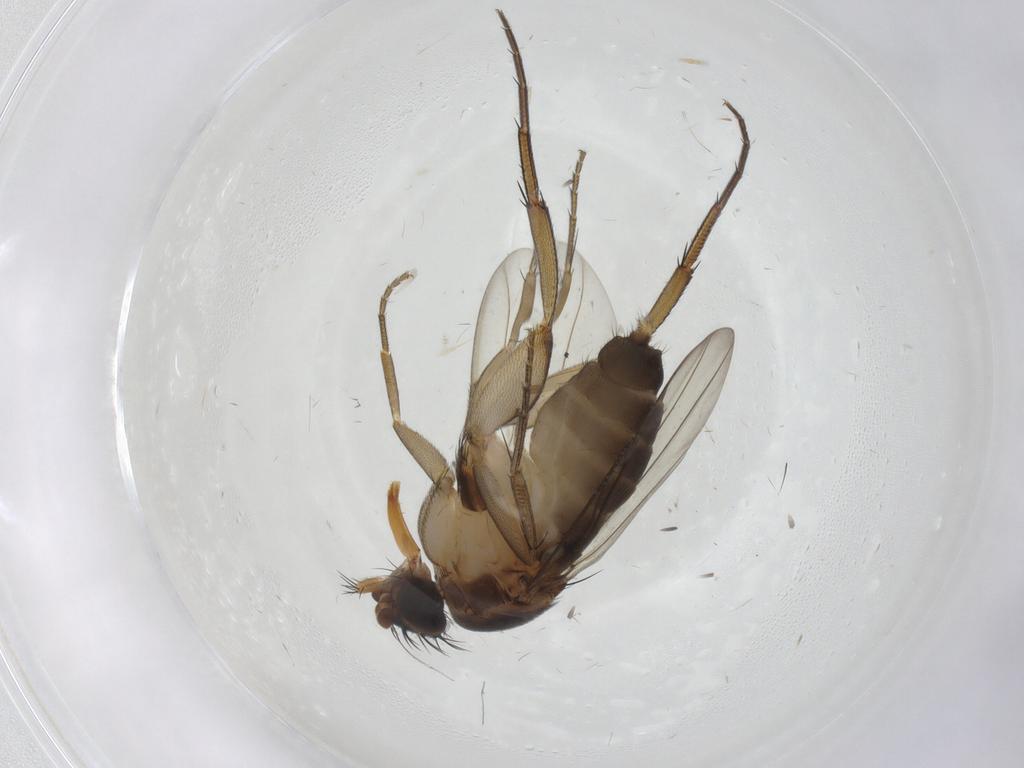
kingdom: Animalia
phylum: Arthropoda
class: Insecta
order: Diptera
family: Phoridae
